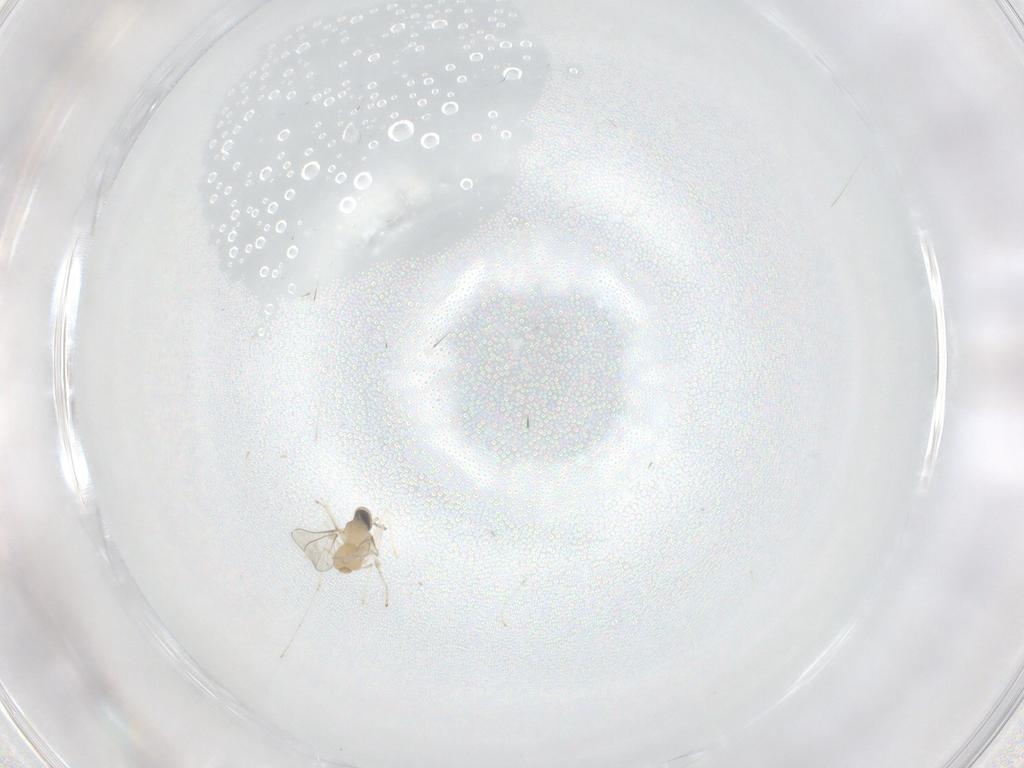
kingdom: Animalia
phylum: Arthropoda
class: Insecta
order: Diptera
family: Cecidomyiidae
